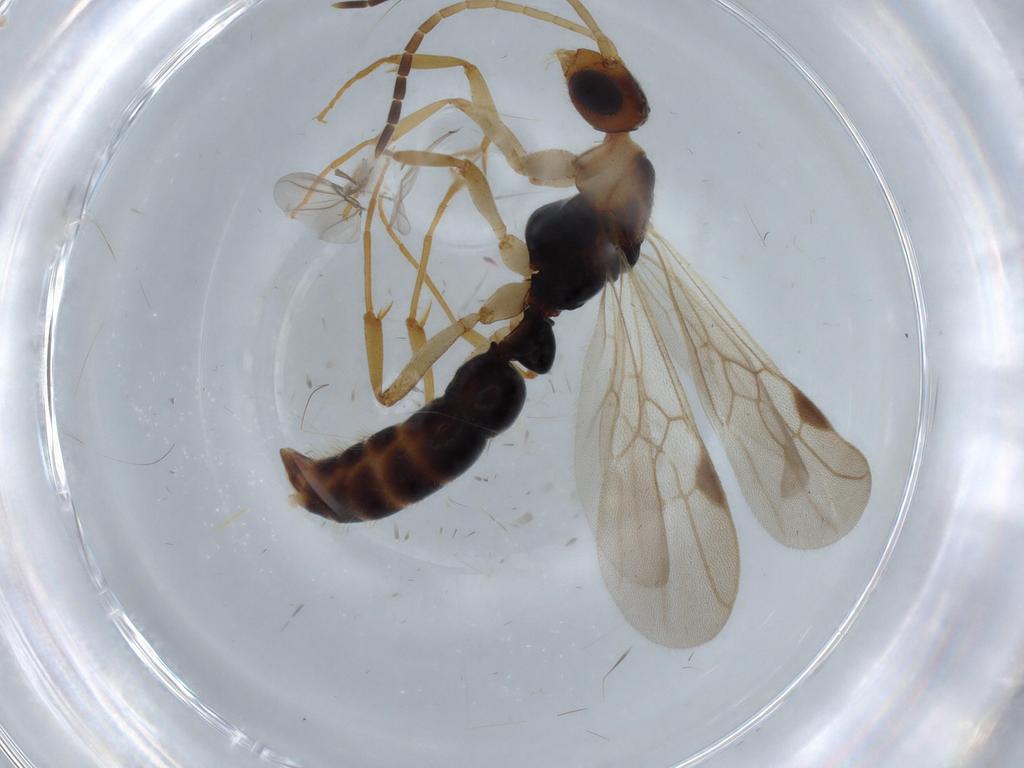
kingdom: Animalia
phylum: Arthropoda
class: Insecta
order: Hymenoptera
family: Formicidae
